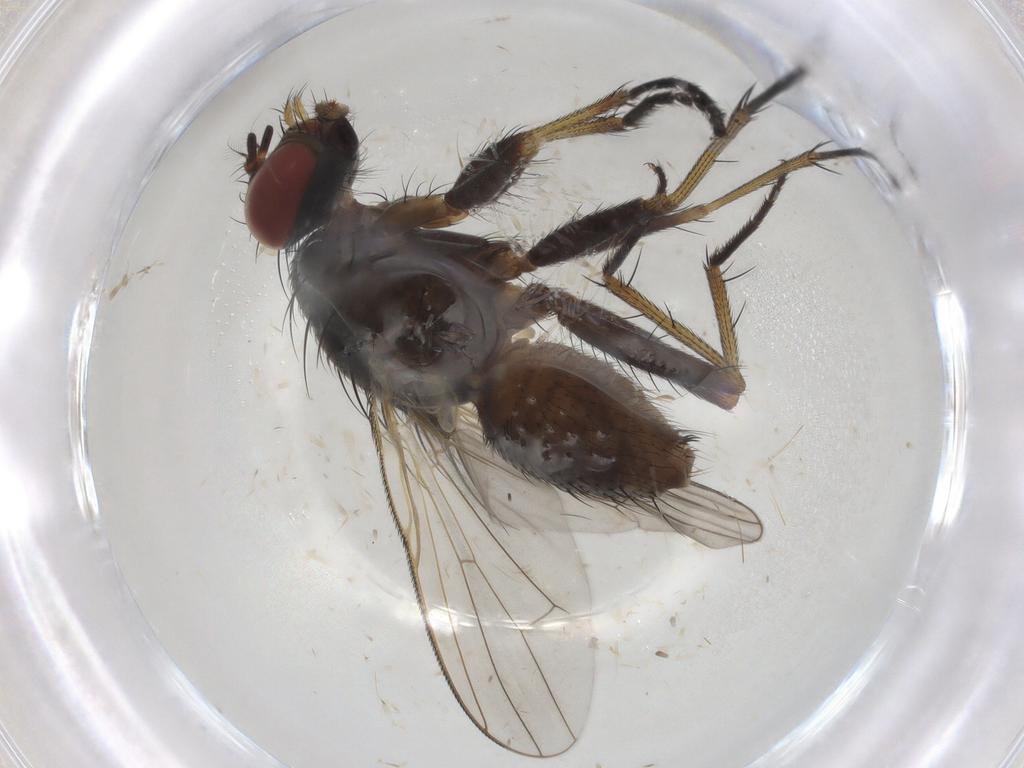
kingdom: Animalia
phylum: Arthropoda
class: Insecta
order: Diptera
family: Muscidae
